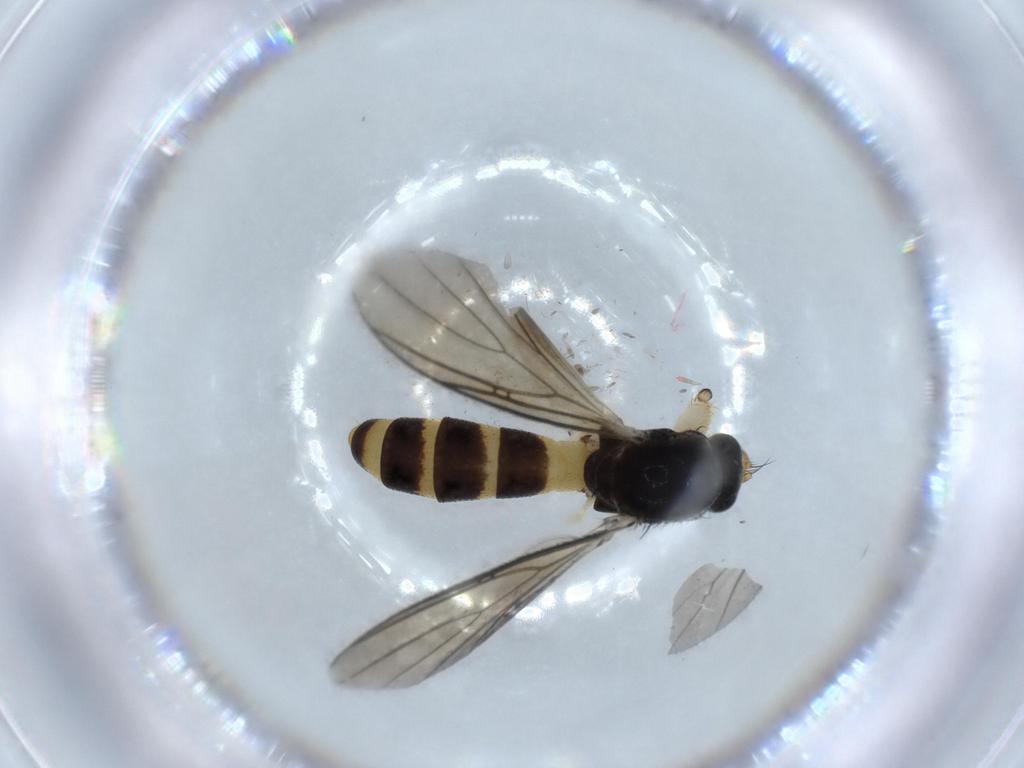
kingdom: Animalia
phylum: Arthropoda
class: Insecta
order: Diptera
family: Mycetophilidae
